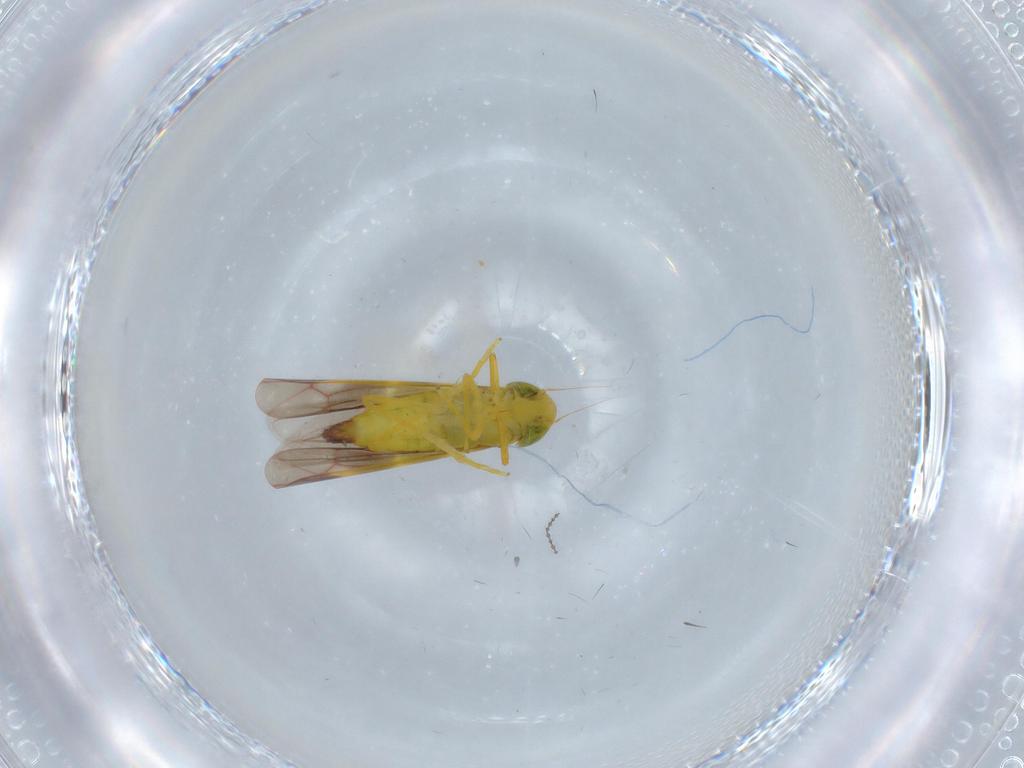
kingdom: Animalia
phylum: Arthropoda
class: Insecta
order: Hemiptera
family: Cicadellidae
